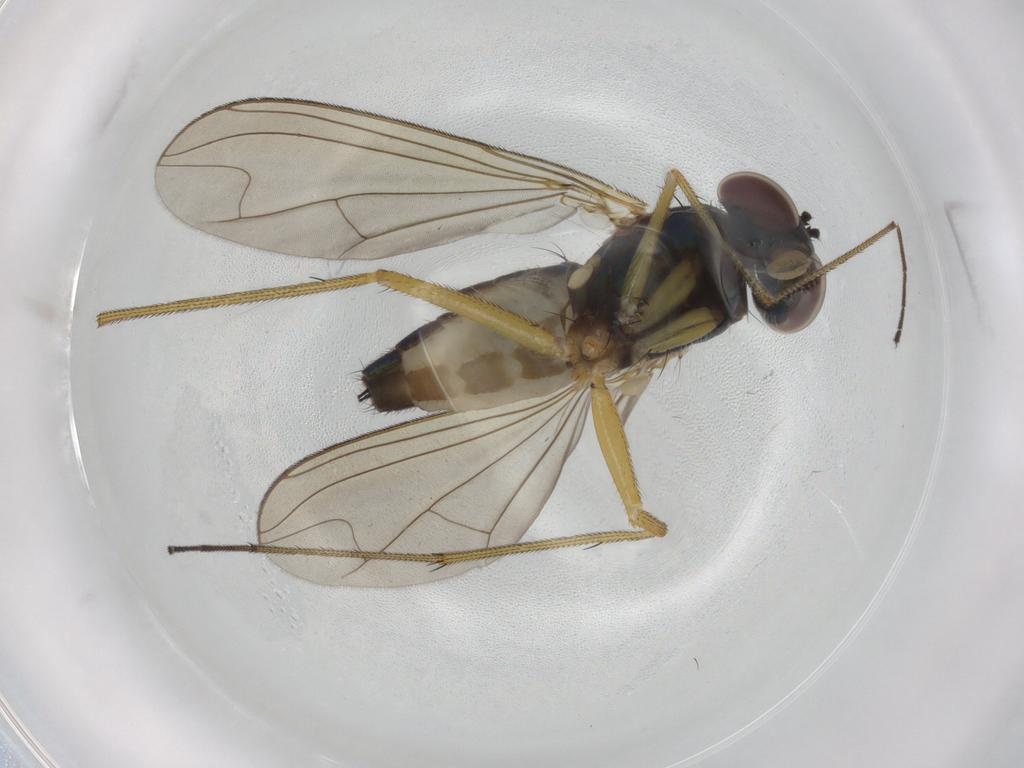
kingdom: Animalia
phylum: Arthropoda
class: Insecta
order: Diptera
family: Dolichopodidae
